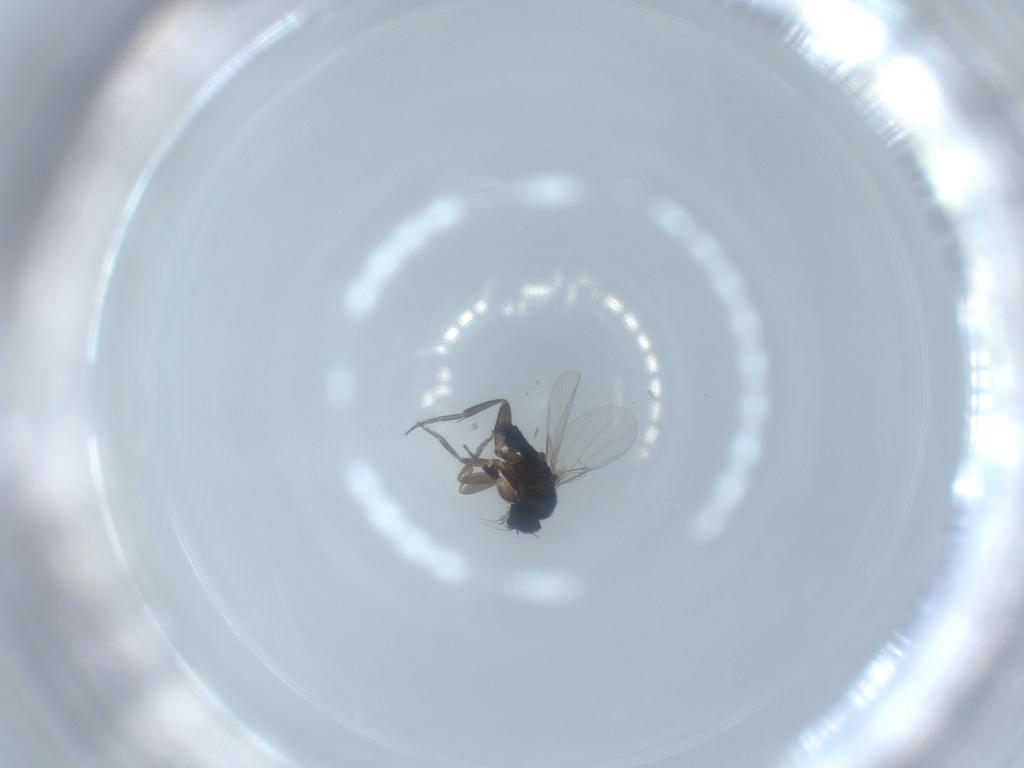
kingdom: Animalia
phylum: Arthropoda
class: Insecta
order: Diptera
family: Phoridae
